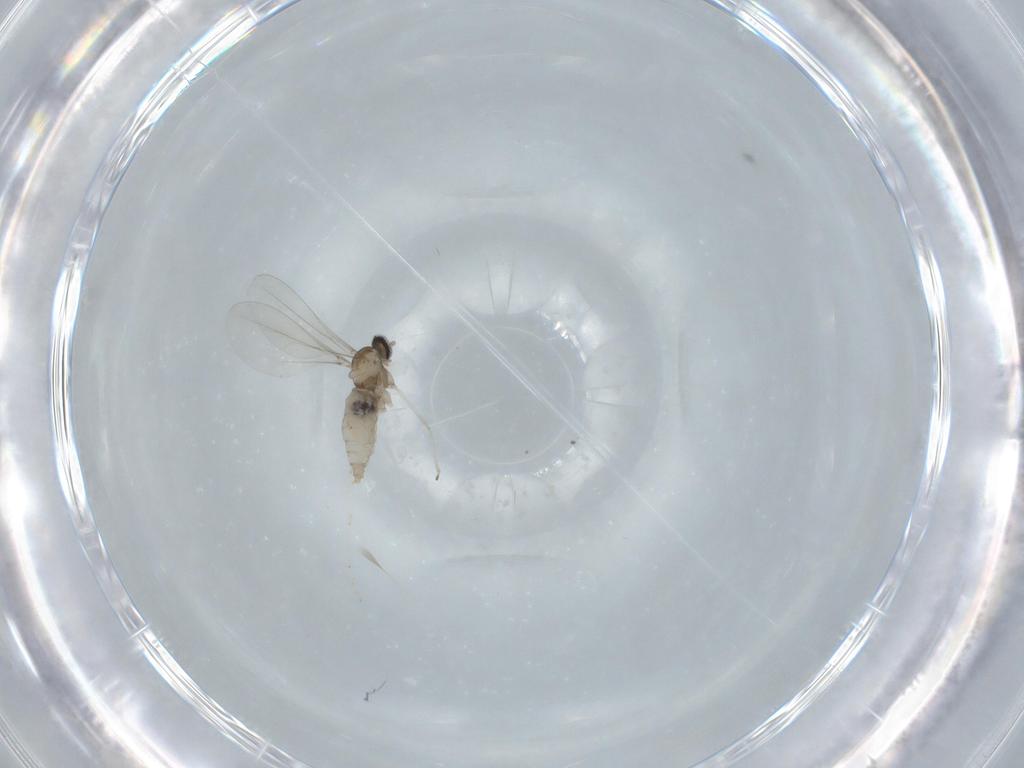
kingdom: Animalia
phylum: Arthropoda
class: Insecta
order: Diptera
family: Cecidomyiidae
